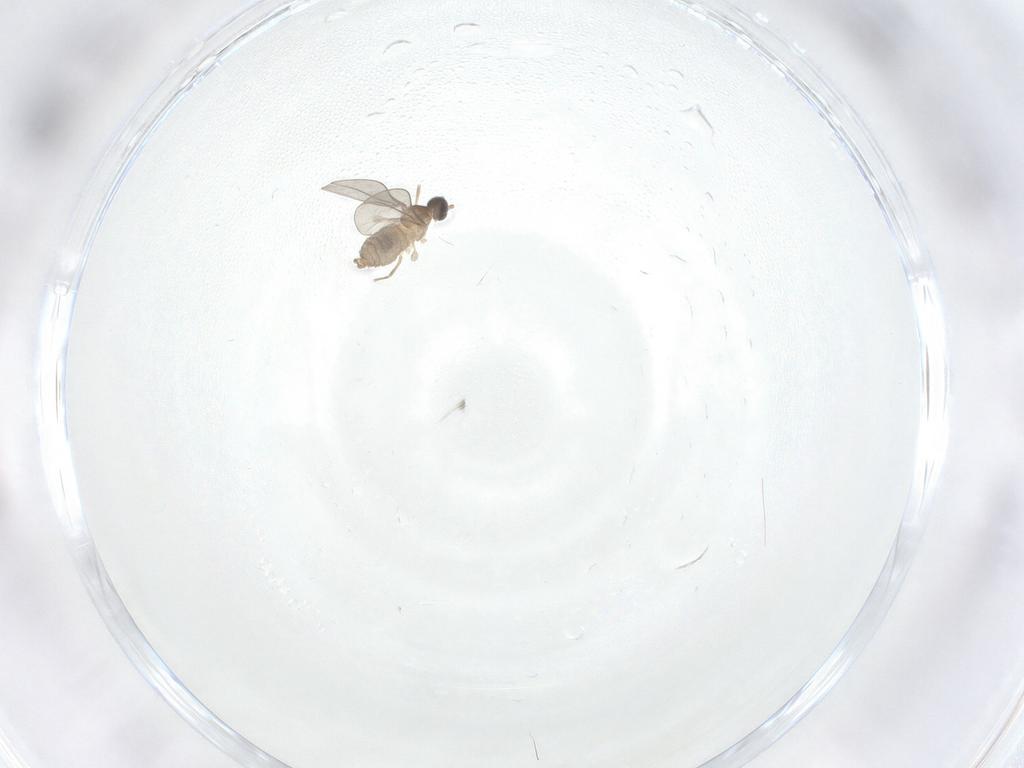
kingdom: Animalia
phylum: Arthropoda
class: Insecta
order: Diptera
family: Cecidomyiidae
